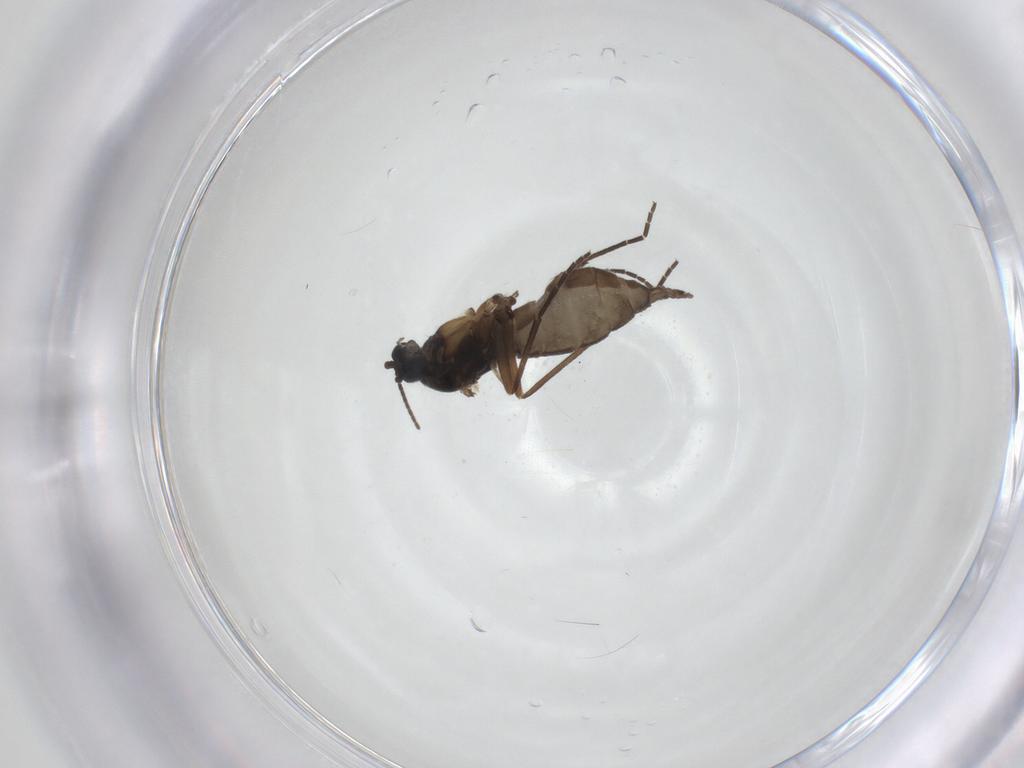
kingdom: Animalia
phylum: Arthropoda
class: Insecta
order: Diptera
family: Sciaridae
